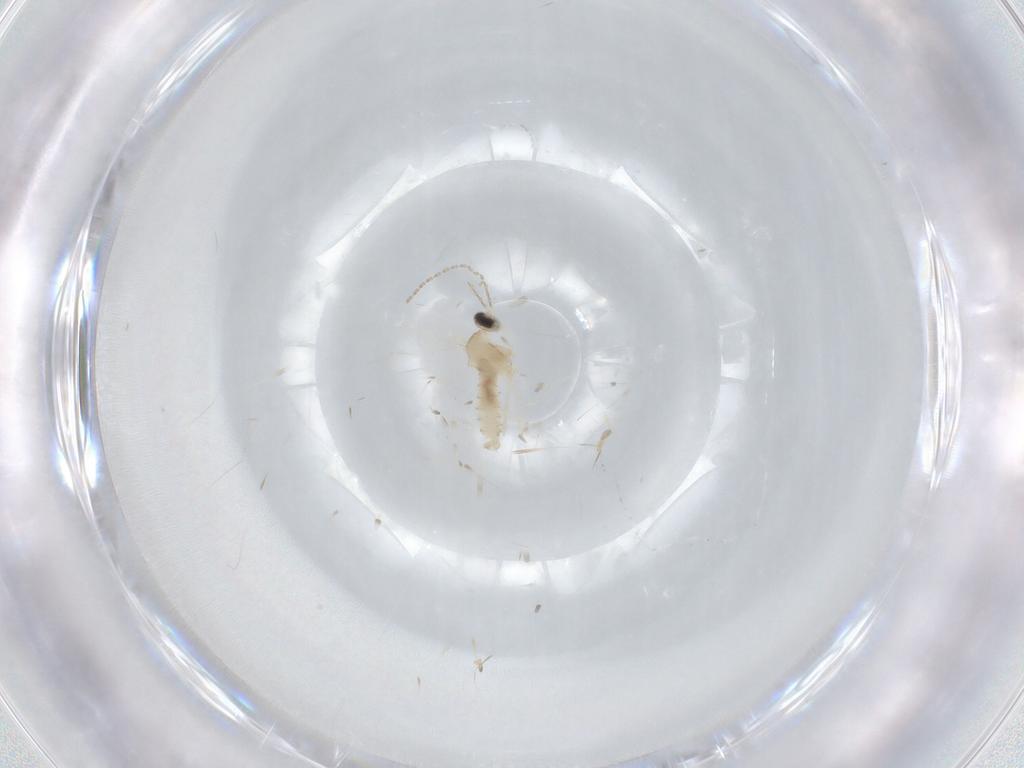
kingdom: Animalia
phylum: Arthropoda
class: Insecta
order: Diptera
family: Cecidomyiidae
